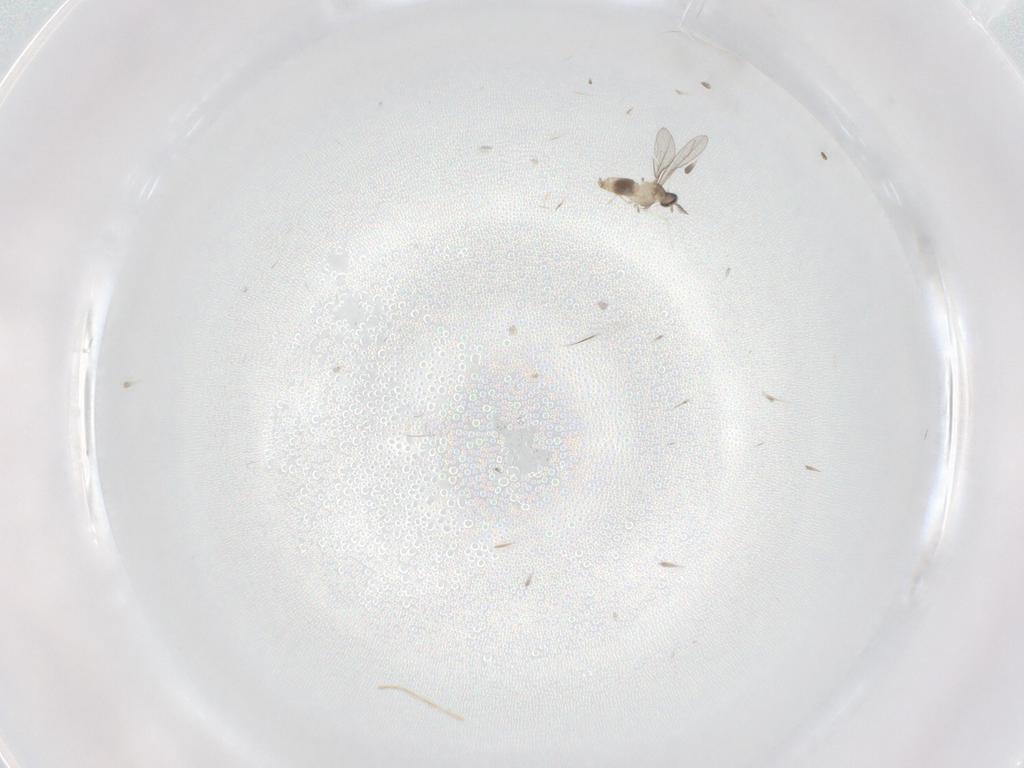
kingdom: Animalia
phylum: Arthropoda
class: Insecta
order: Diptera
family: Cecidomyiidae
